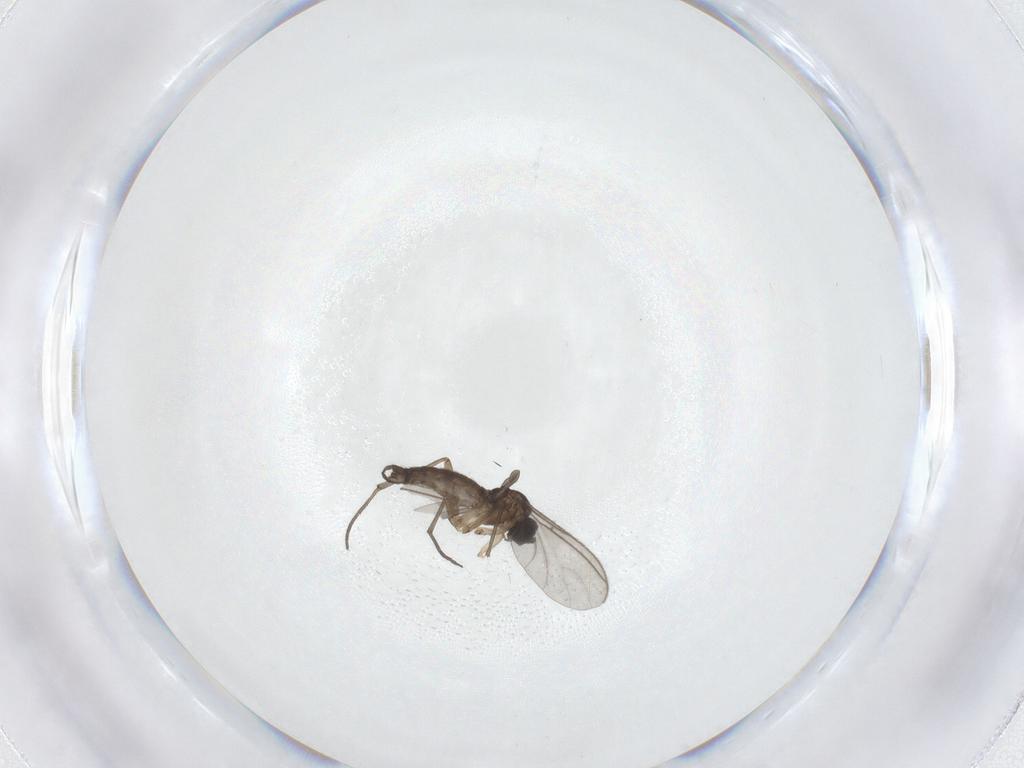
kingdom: Animalia
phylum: Arthropoda
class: Insecta
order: Diptera
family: Sciaridae
